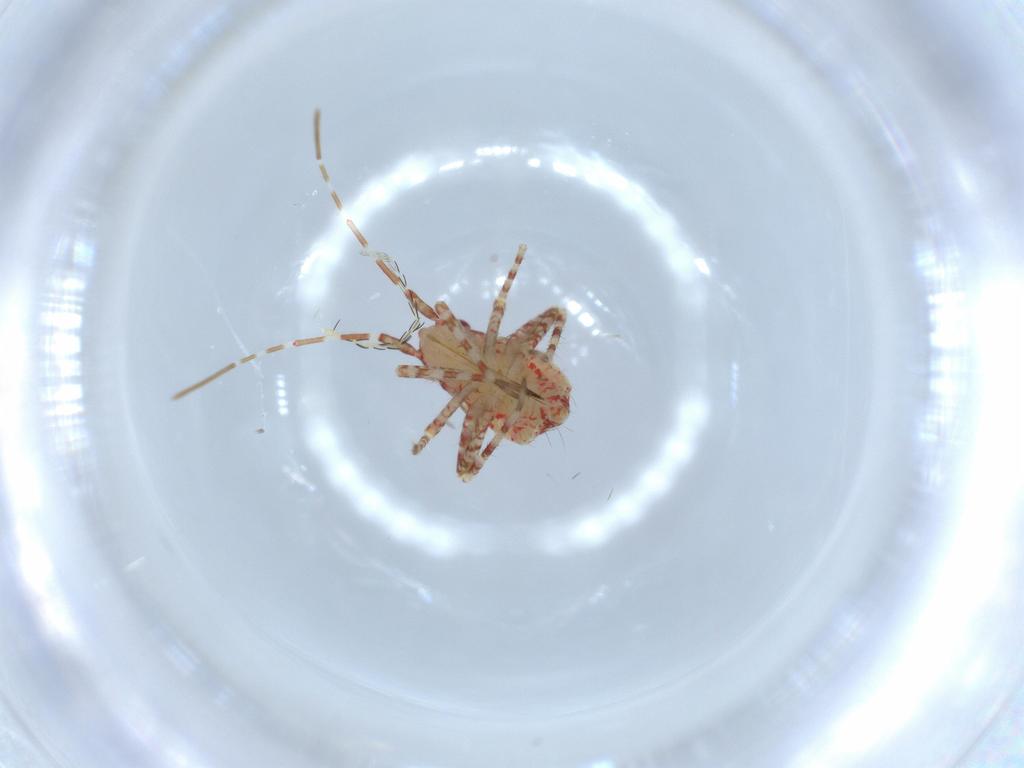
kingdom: Animalia
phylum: Arthropoda
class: Insecta
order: Hemiptera
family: Miridae
